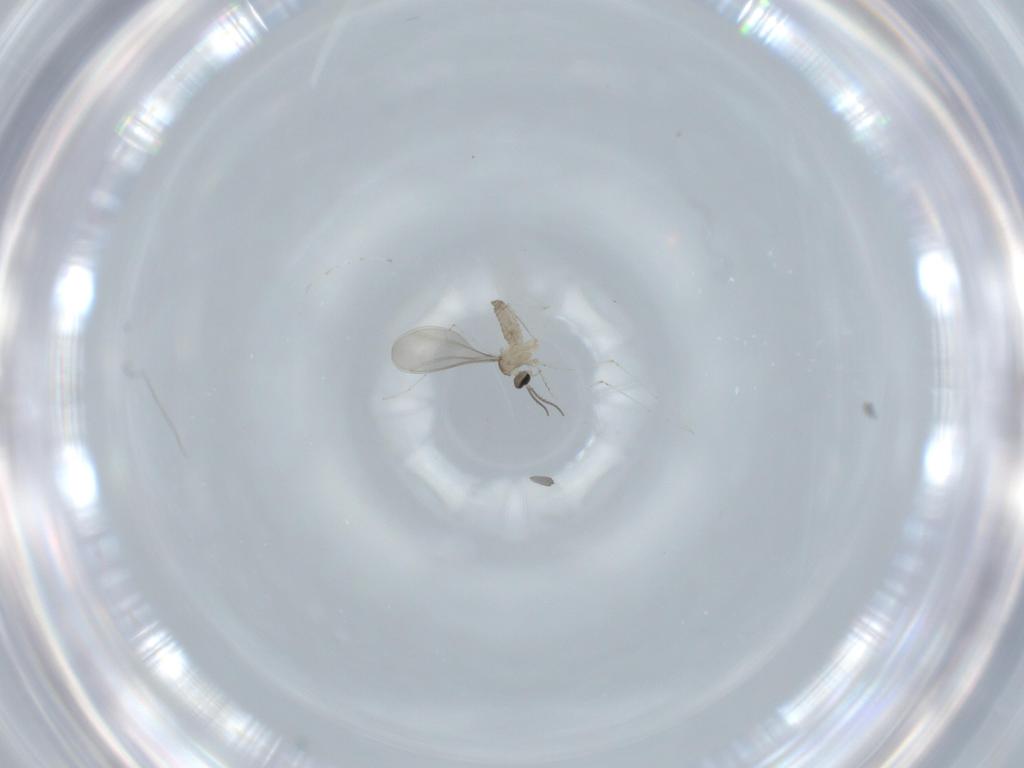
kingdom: Animalia
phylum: Arthropoda
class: Insecta
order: Diptera
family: Cecidomyiidae
